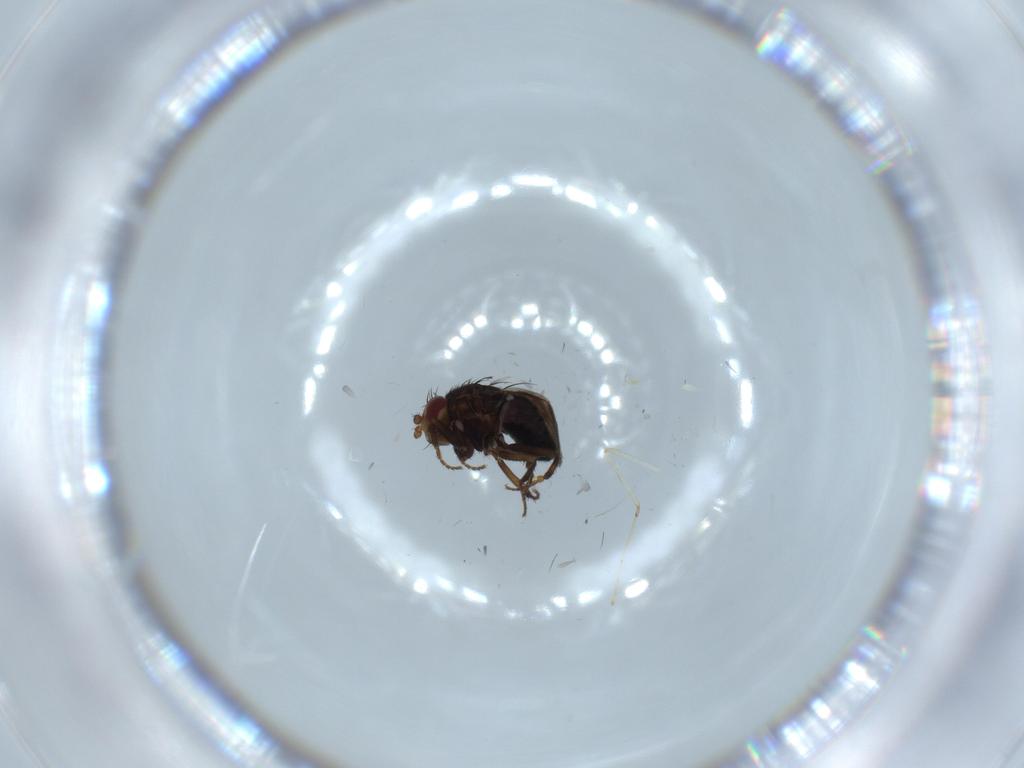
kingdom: Animalia
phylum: Arthropoda
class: Insecta
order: Diptera
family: Sphaeroceridae
